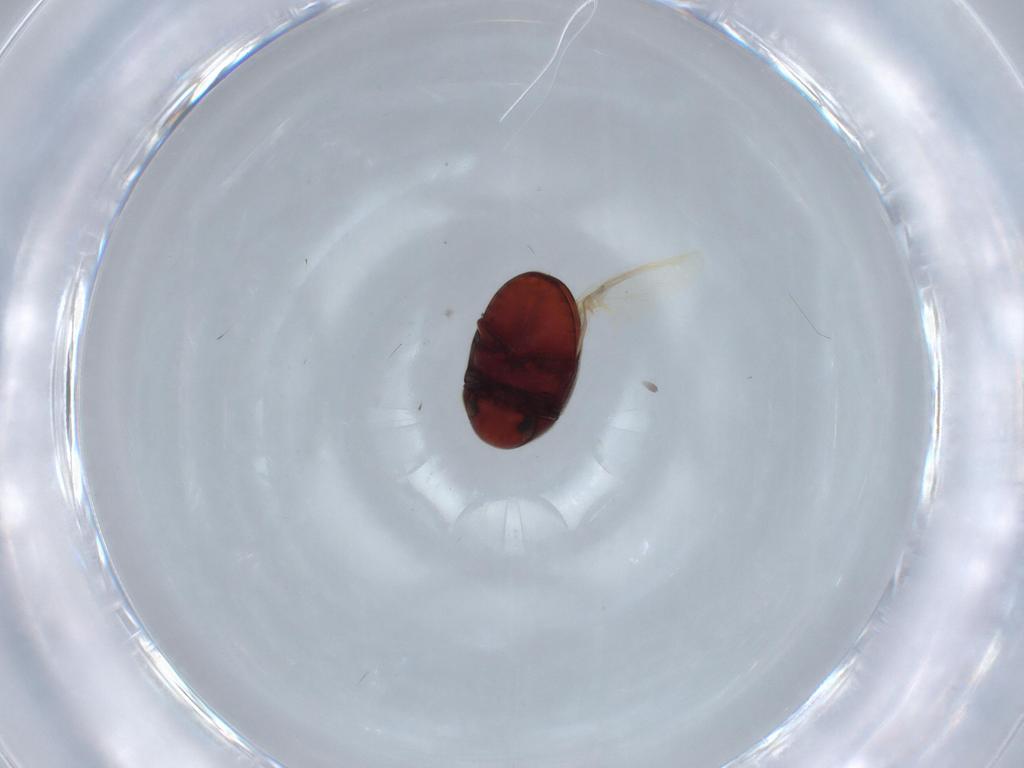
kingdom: Animalia
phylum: Arthropoda
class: Insecta
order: Coleoptera
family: Ptinidae
